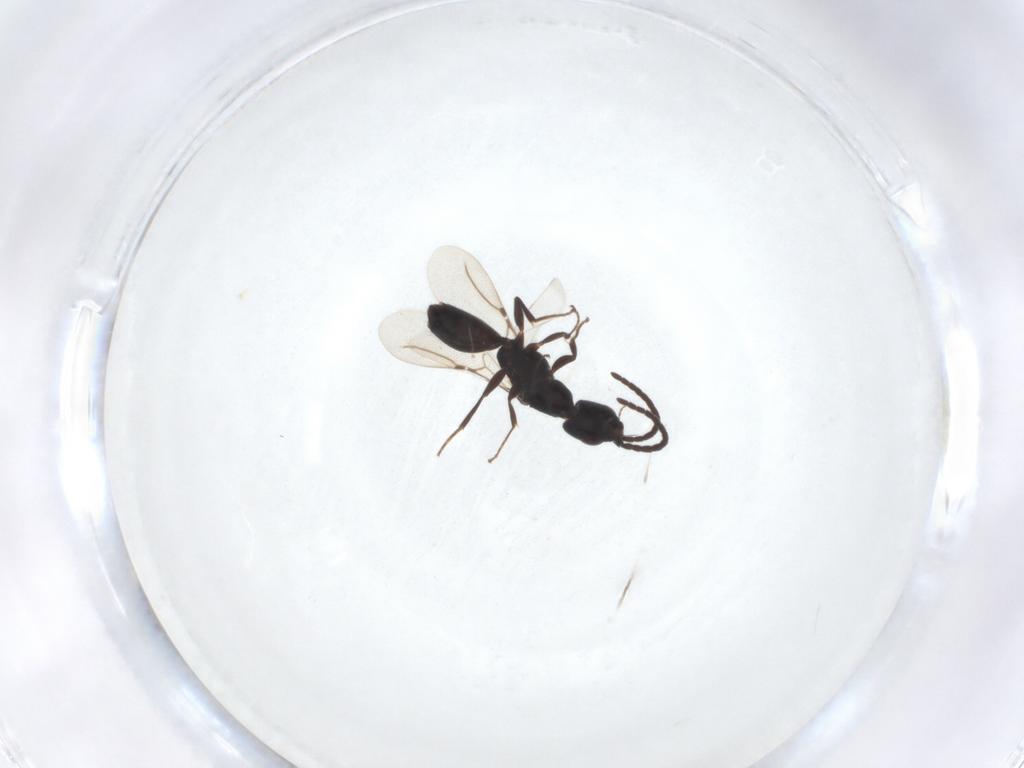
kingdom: Animalia
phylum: Arthropoda
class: Insecta
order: Hymenoptera
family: Bethylidae
